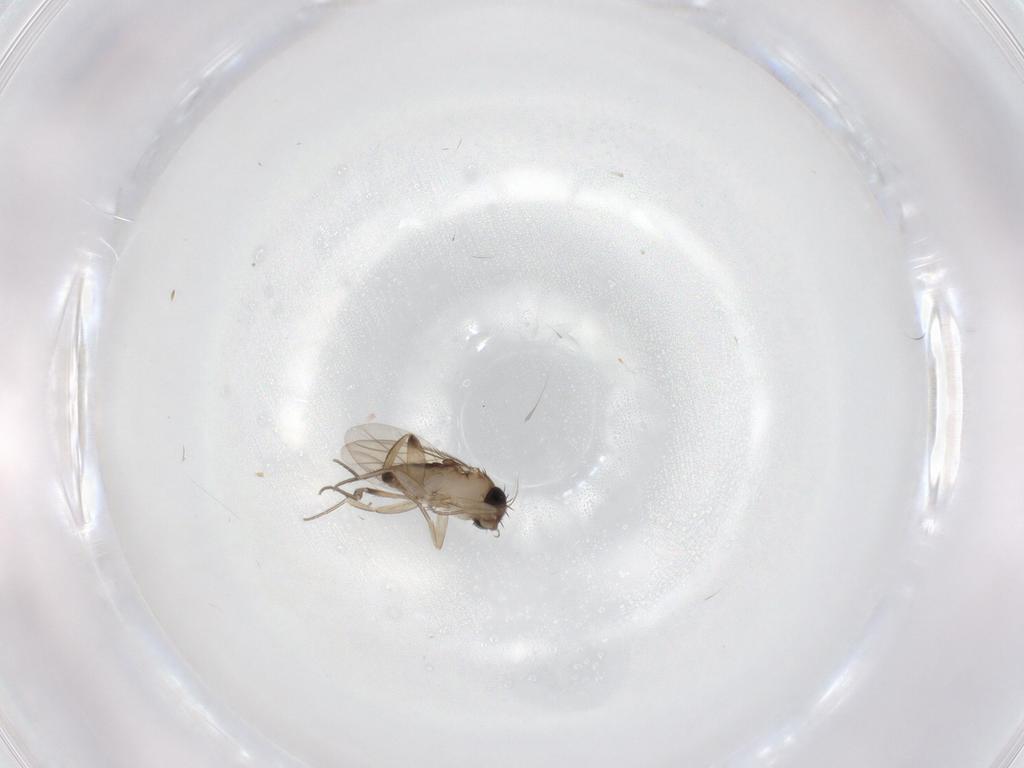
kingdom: Animalia
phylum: Arthropoda
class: Insecta
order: Diptera
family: Phoridae
